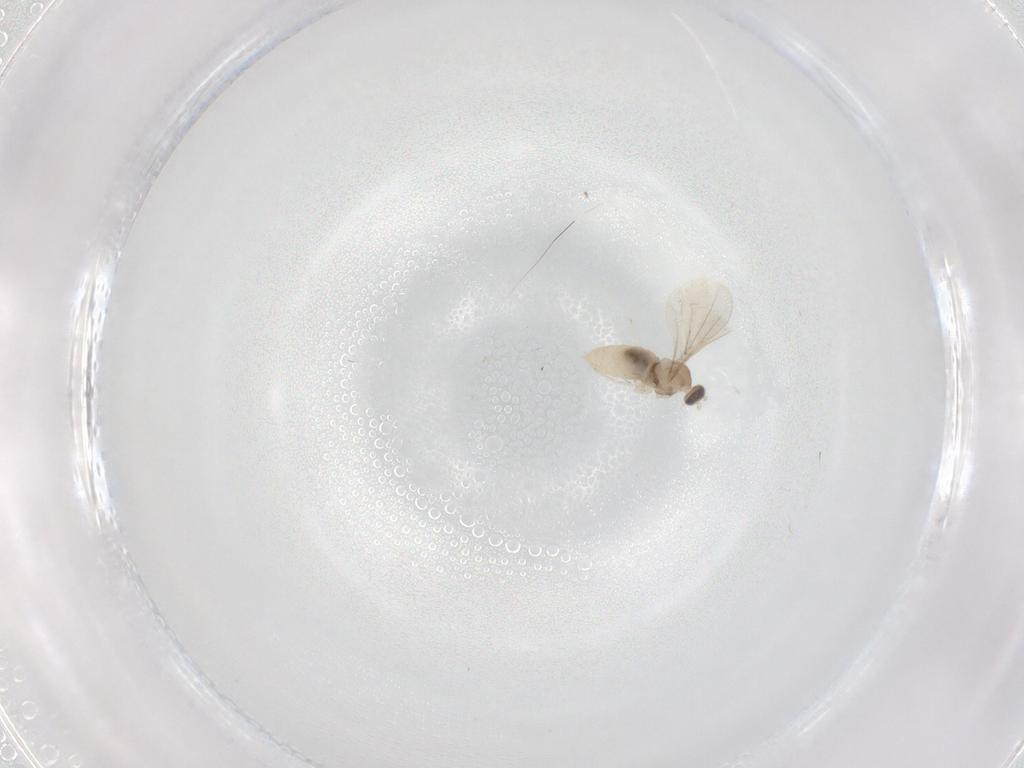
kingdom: Animalia
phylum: Arthropoda
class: Insecta
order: Diptera
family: Cecidomyiidae
